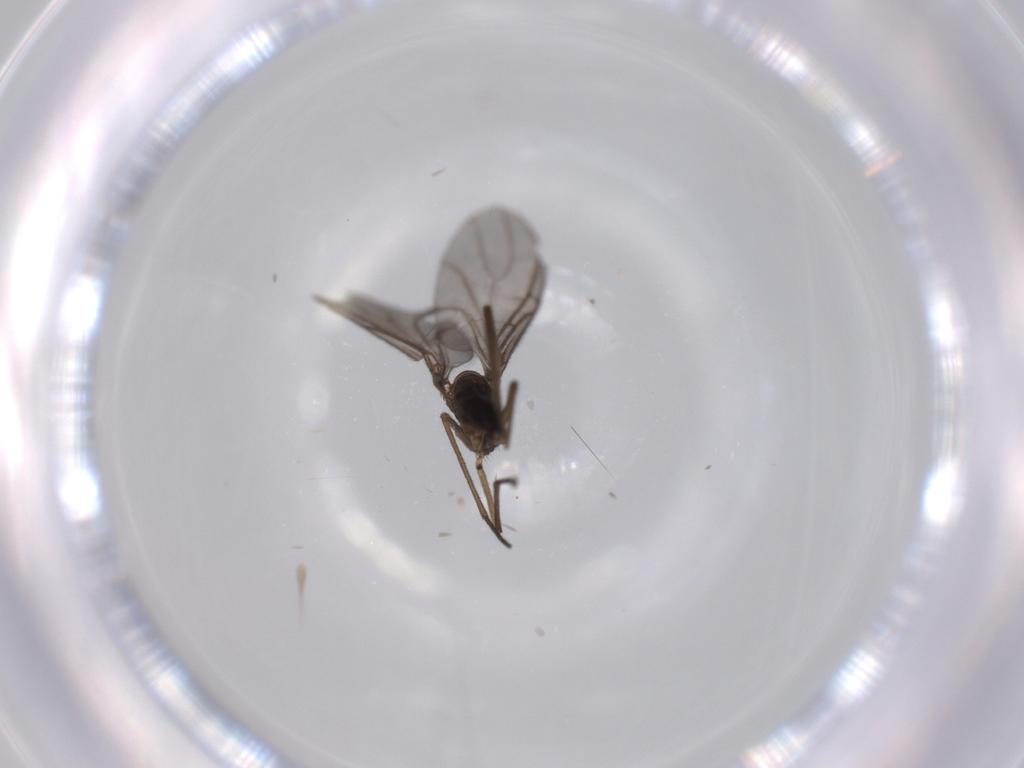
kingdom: Animalia
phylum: Arthropoda
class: Insecta
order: Diptera
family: Sciaridae
